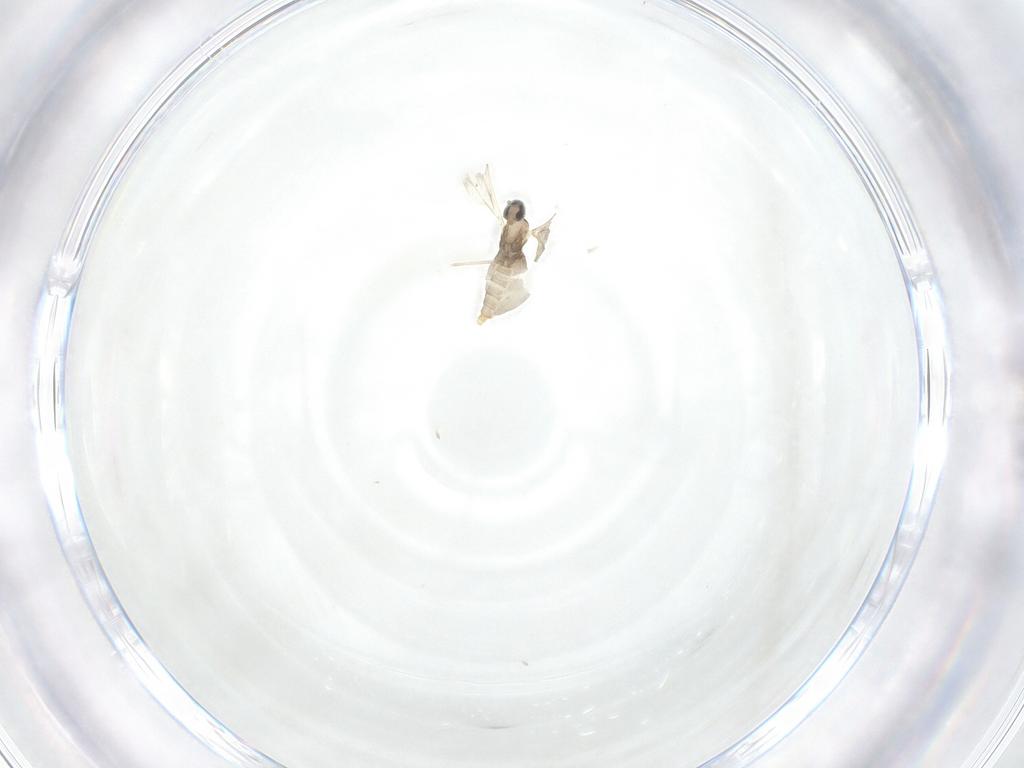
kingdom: Animalia
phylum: Arthropoda
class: Insecta
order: Diptera
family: Cecidomyiidae
